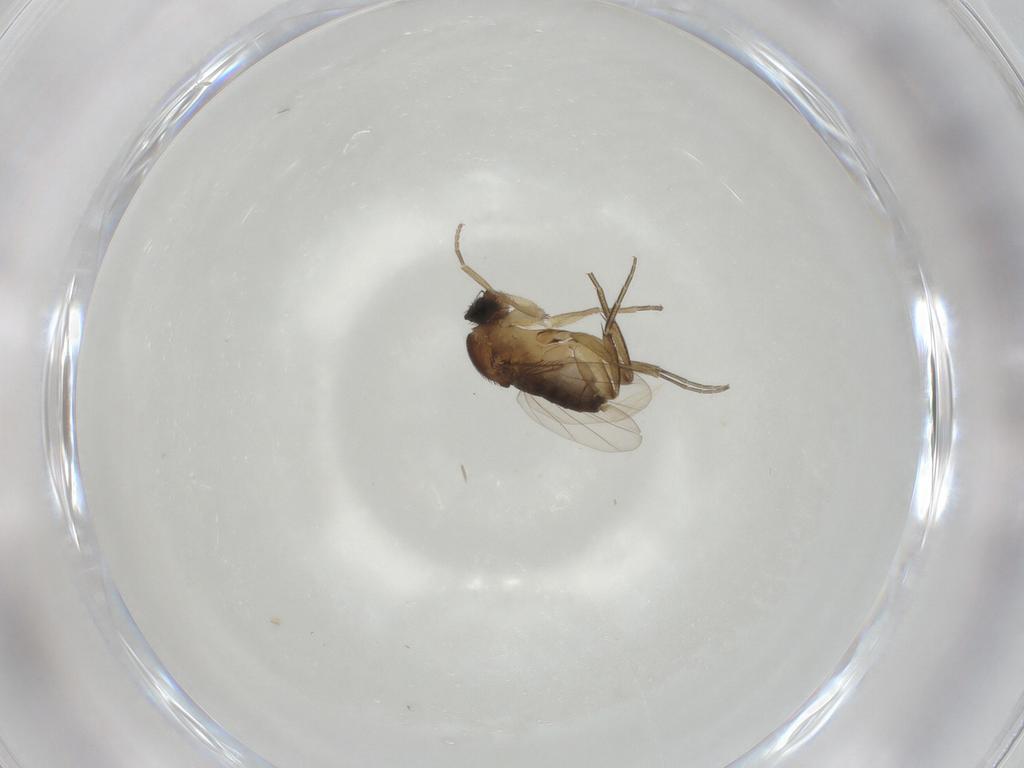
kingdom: Animalia
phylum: Arthropoda
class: Insecta
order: Diptera
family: Phoridae
